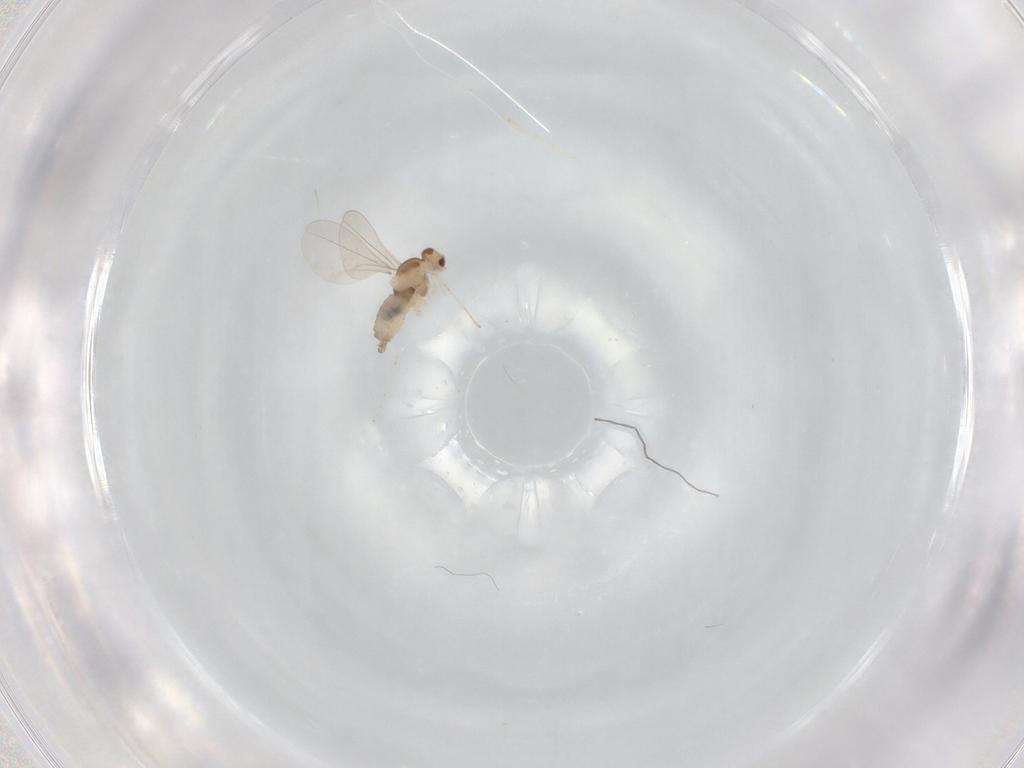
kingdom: Animalia
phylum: Arthropoda
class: Insecta
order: Diptera
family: Cecidomyiidae
